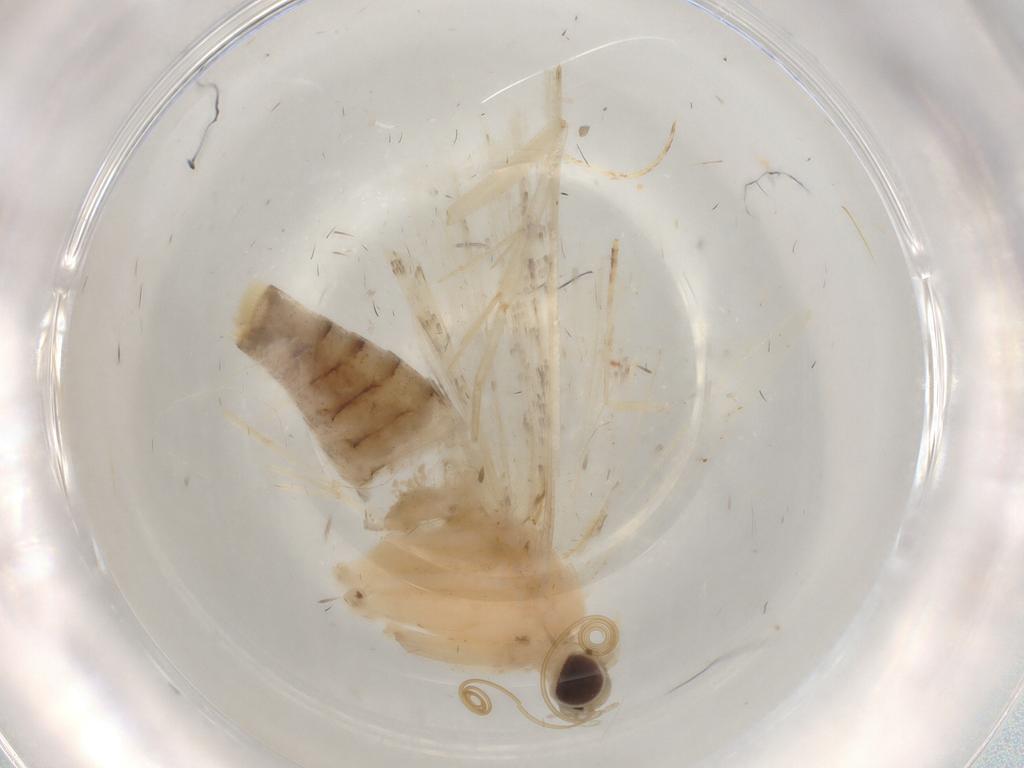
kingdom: Animalia
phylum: Arthropoda
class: Insecta
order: Lepidoptera
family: Crambidae
